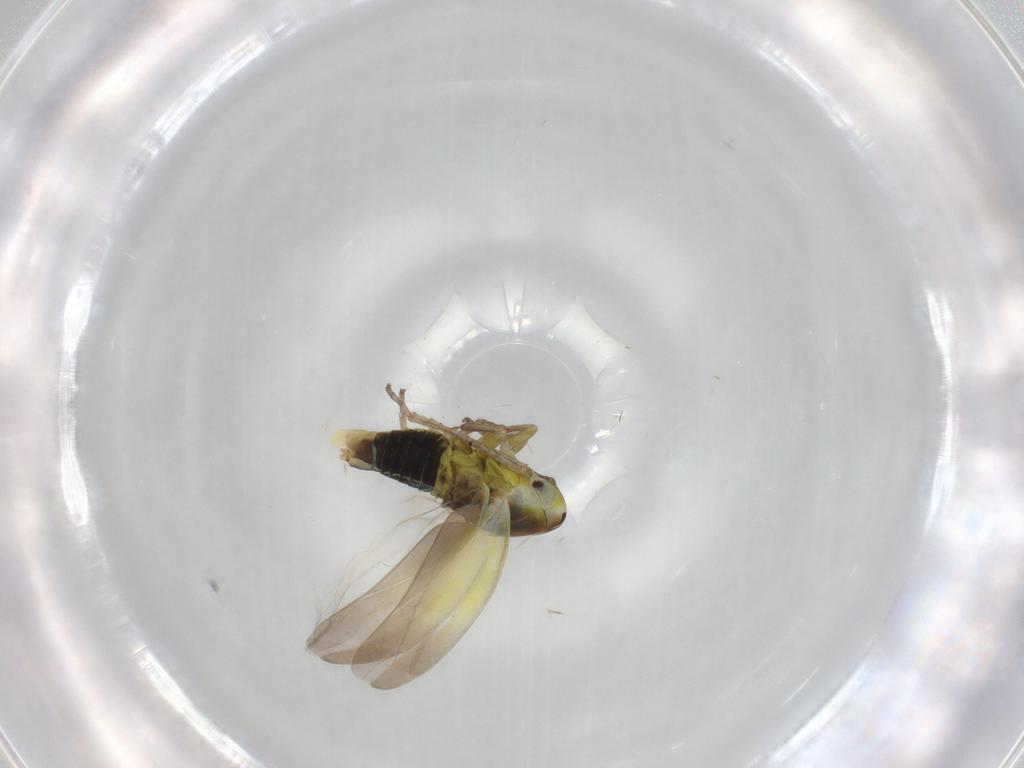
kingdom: Animalia
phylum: Arthropoda
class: Insecta
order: Hemiptera
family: Cicadellidae
